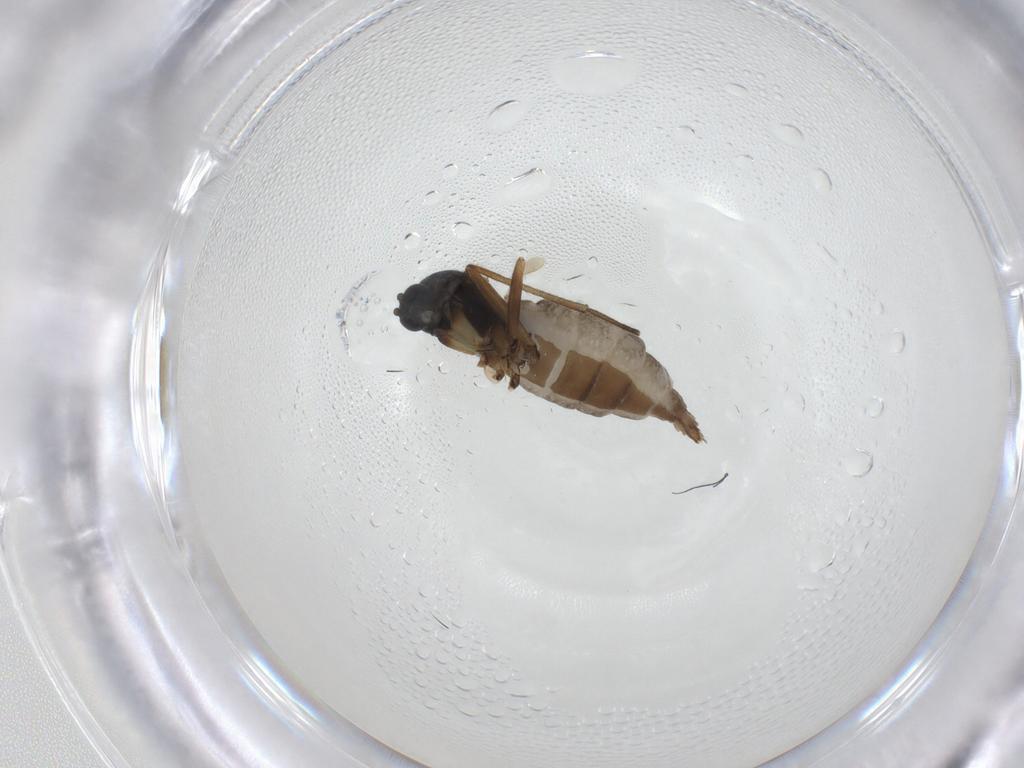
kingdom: Animalia
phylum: Arthropoda
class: Insecta
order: Diptera
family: Sciaridae
